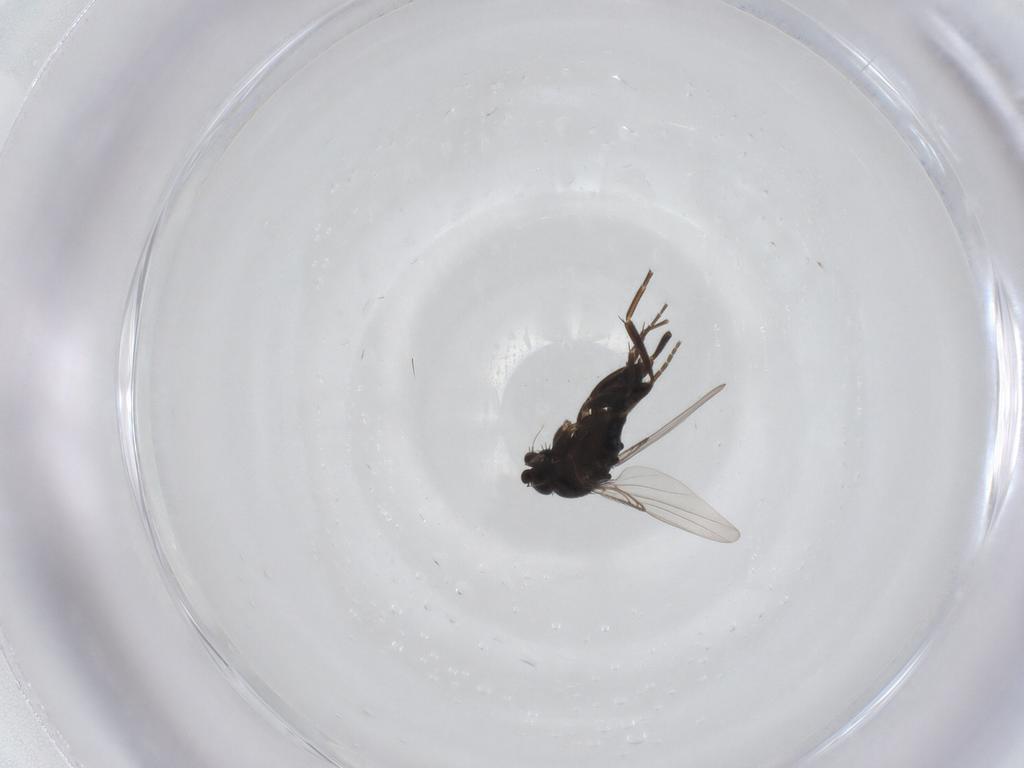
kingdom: Animalia
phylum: Arthropoda
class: Insecta
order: Diptera
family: Phoridae
